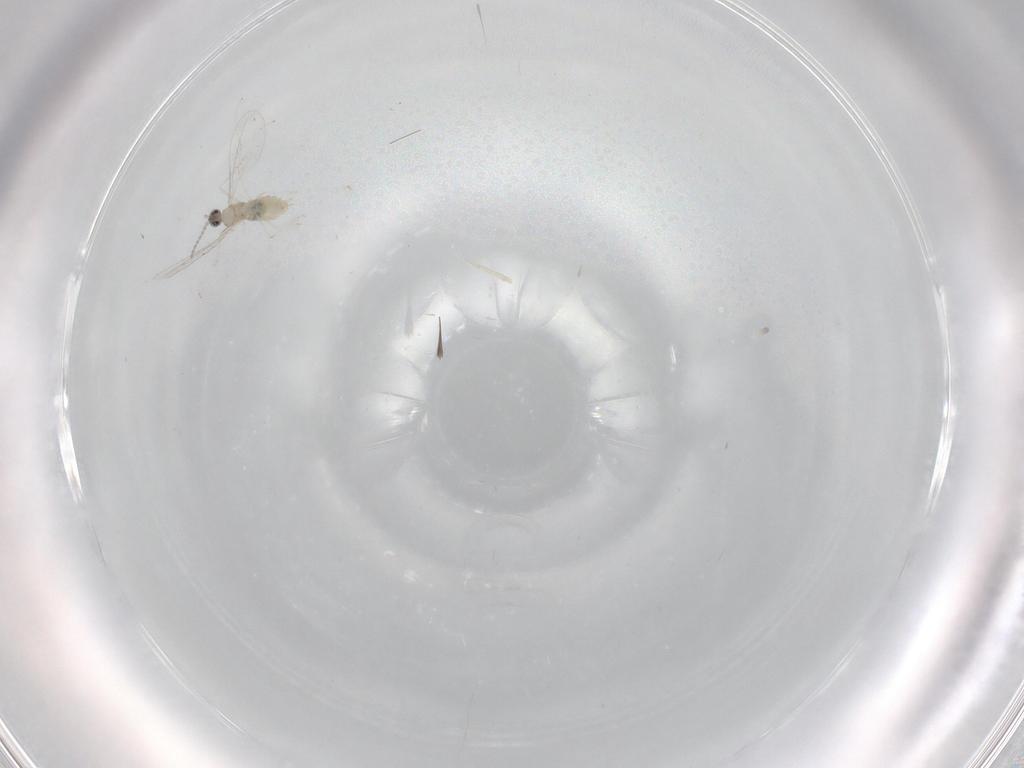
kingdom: Animalia
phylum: Arthropoda
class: Insecta
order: Diptera
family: Cecidomyiidae
